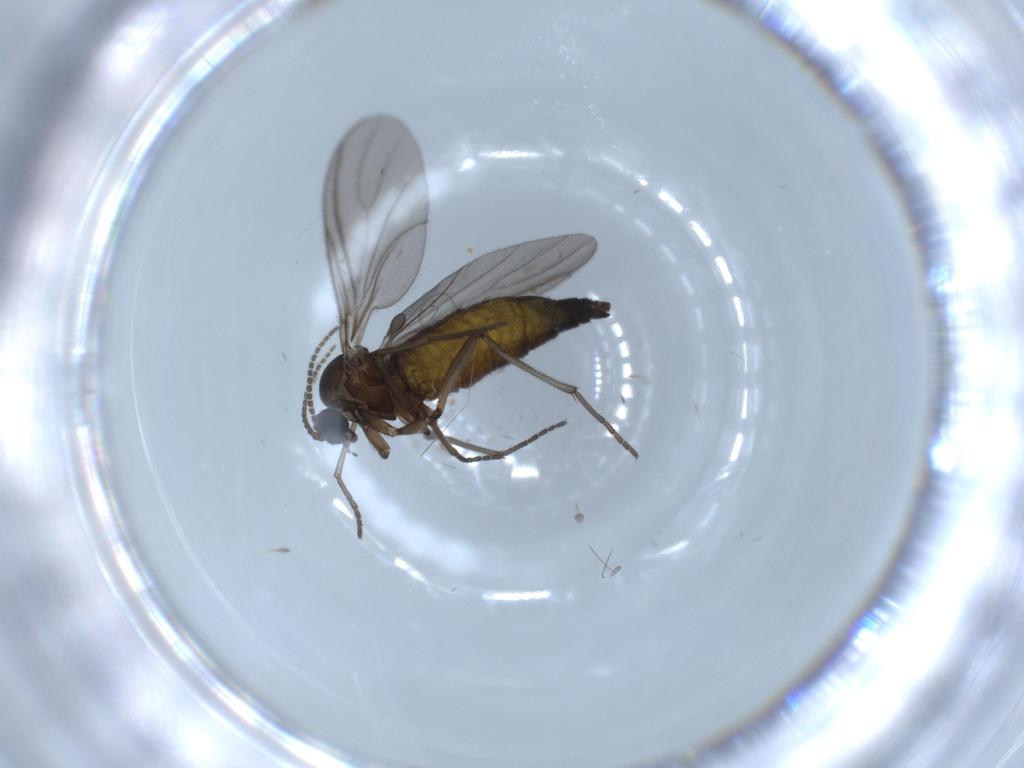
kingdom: Animalia
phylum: Arthropoda
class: Insecta
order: Diptera
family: Sciaridae
